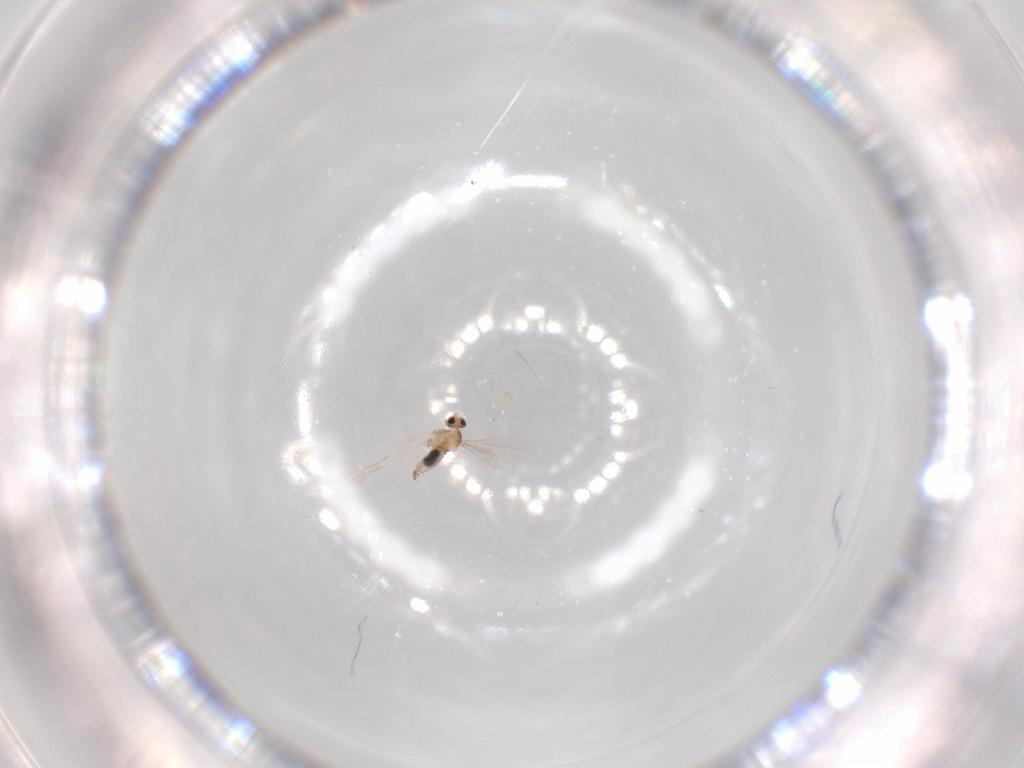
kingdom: Animalia
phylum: Arthropoda
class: Insecta
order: Diptera
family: Cecidomyiidae
